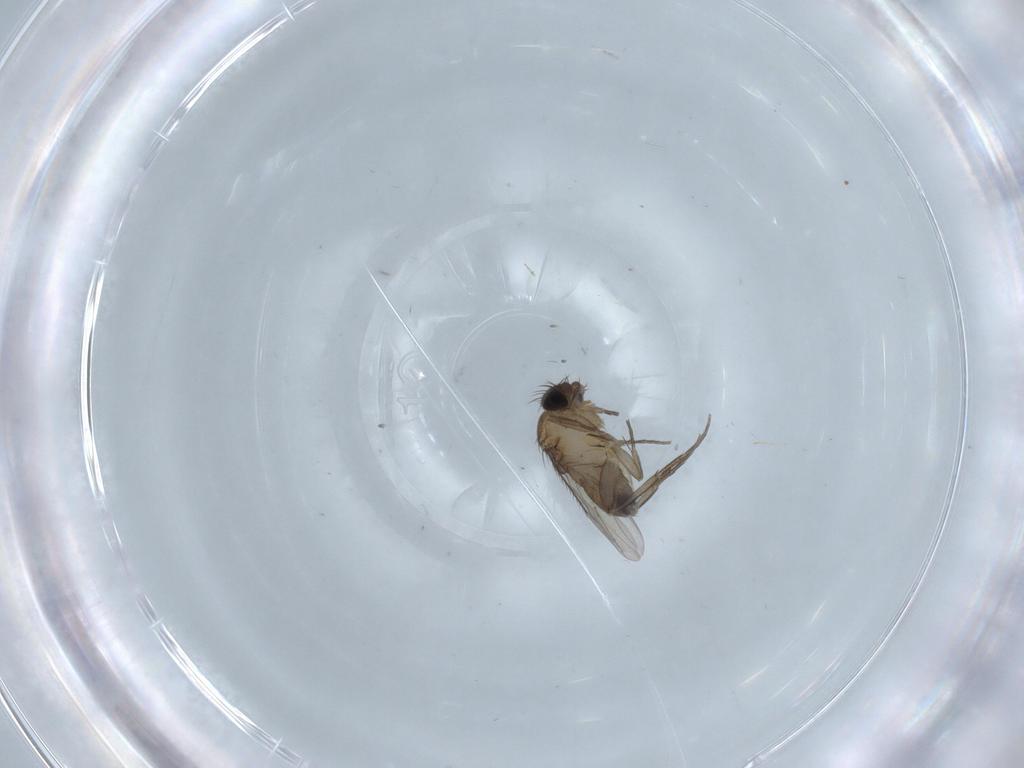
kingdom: Animalia
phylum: Arthropoda
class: Insecta
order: Diptera
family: Phoridae
